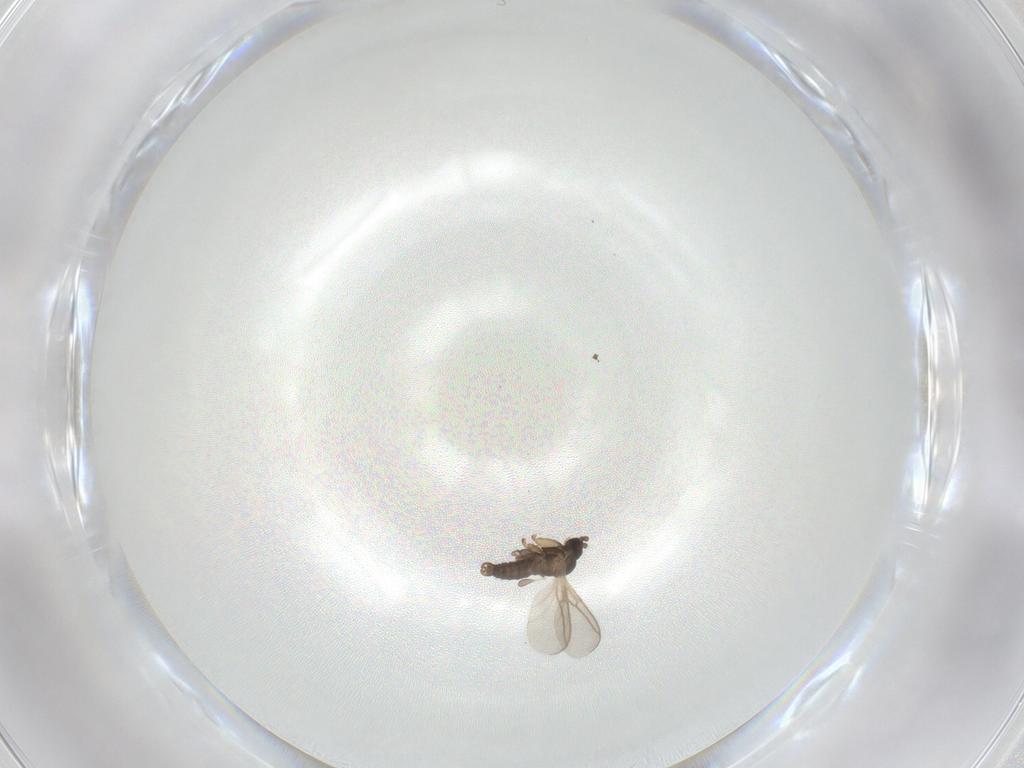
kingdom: Animalia
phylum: Arthropoda
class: Insecta
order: Diptera
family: Sciaridae
